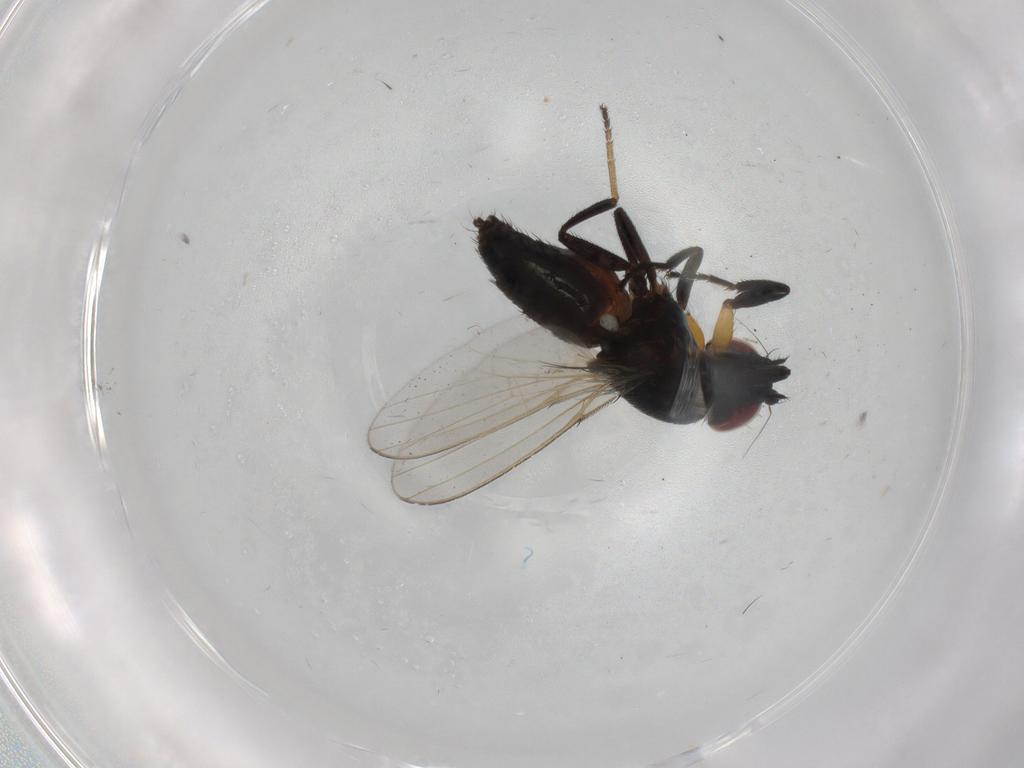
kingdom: Animalia
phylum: Arthropoda
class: Insecta
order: Diptera
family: Milichiidae
